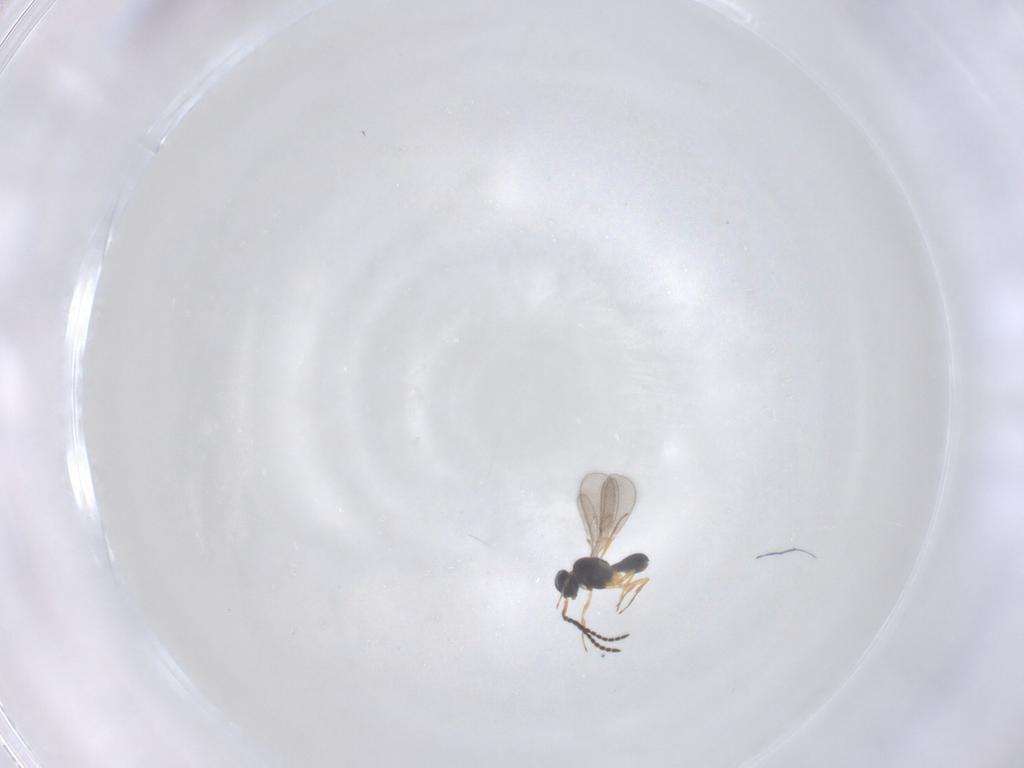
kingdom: Animalia
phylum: Arthropoda
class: Insecta
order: Hymenoptera
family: Scelionidae
